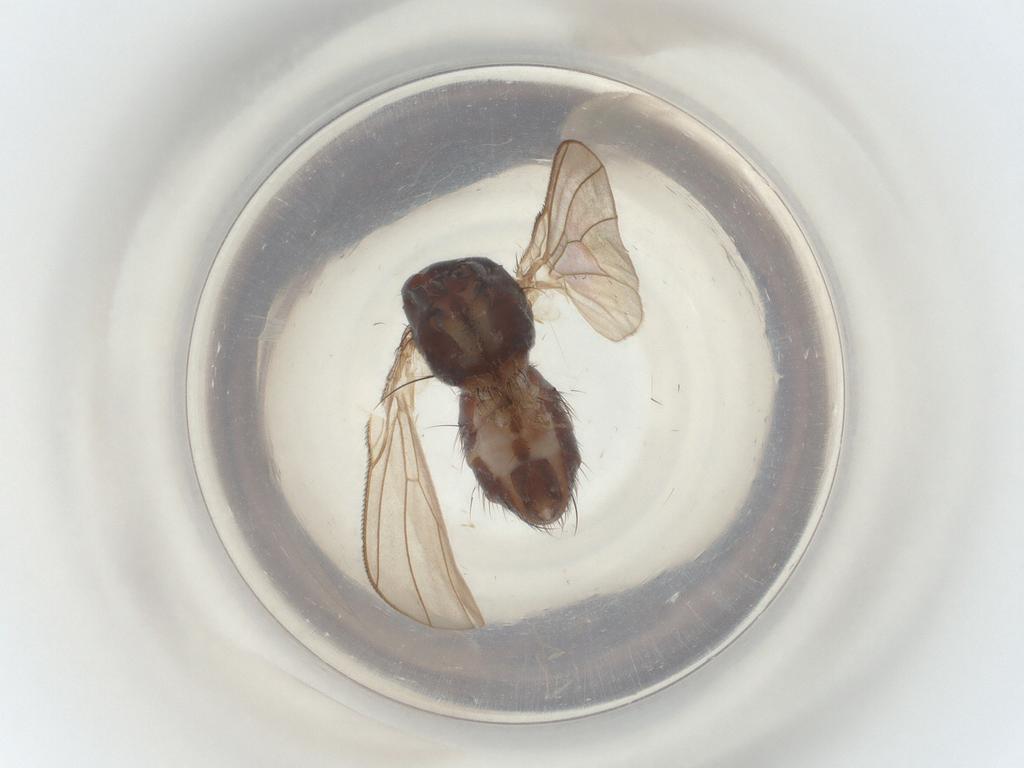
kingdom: Animalia
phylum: Arthropoda
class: Insecta
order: Diptera
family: Muscidae
